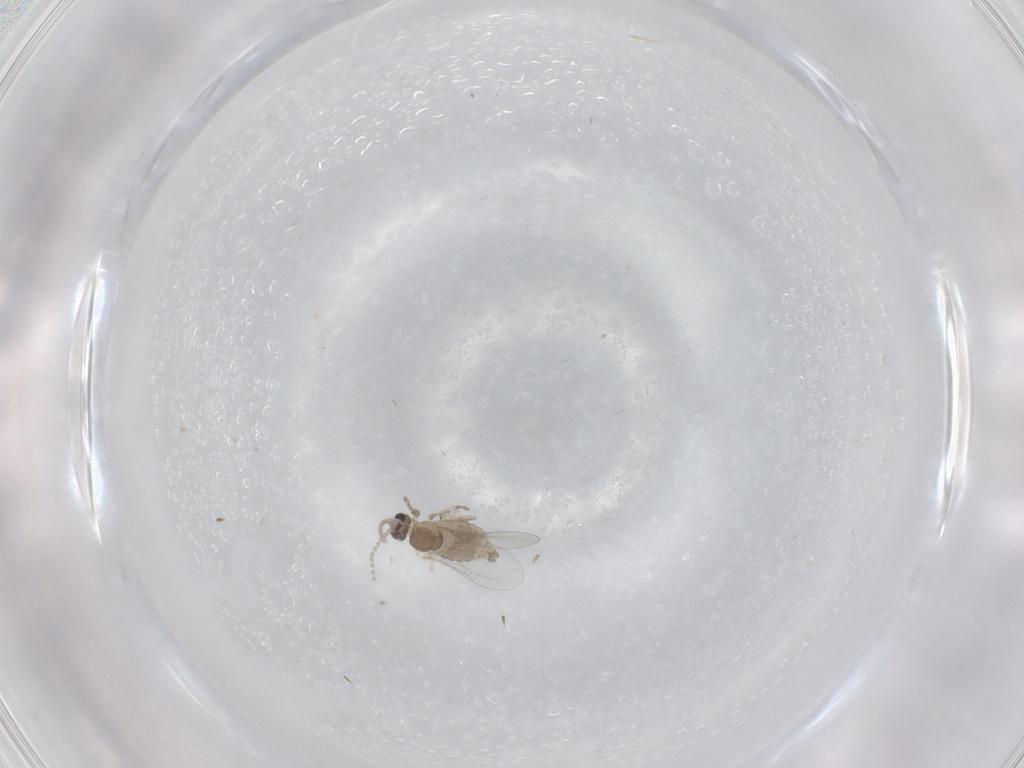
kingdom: Animalia
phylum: Arthropoda
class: Insecta
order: Diptera
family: Cecidomyiidae
